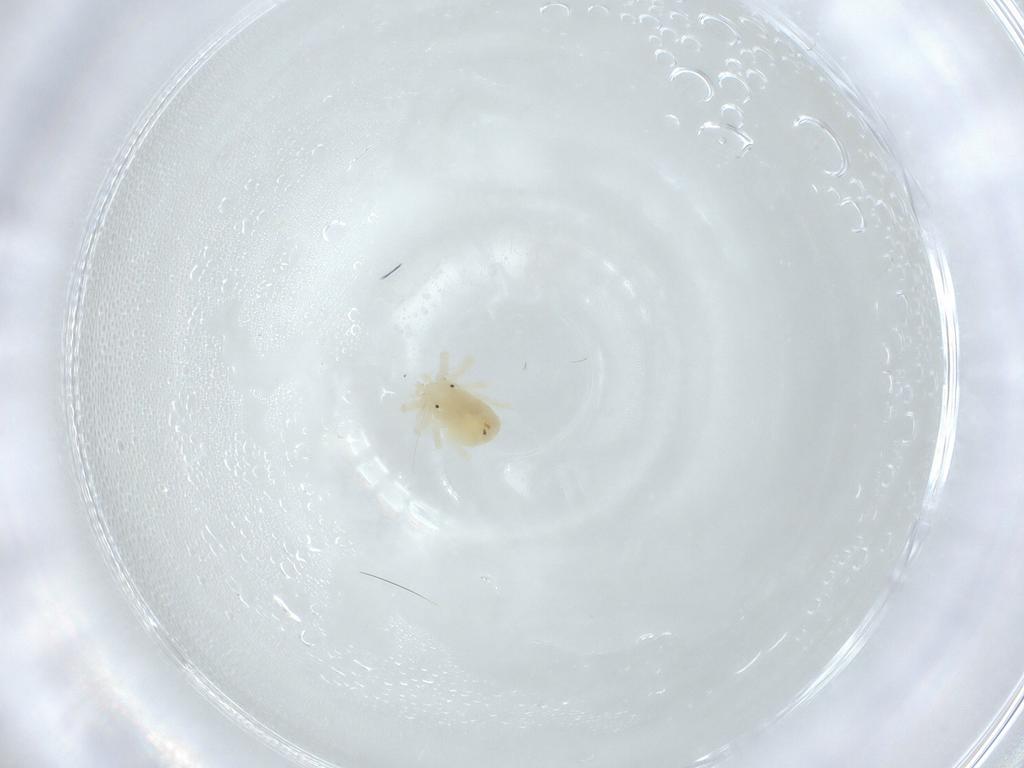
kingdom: Animalia
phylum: Arthropoda
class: Arachnida
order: Trombidiformes
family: Anystidae
